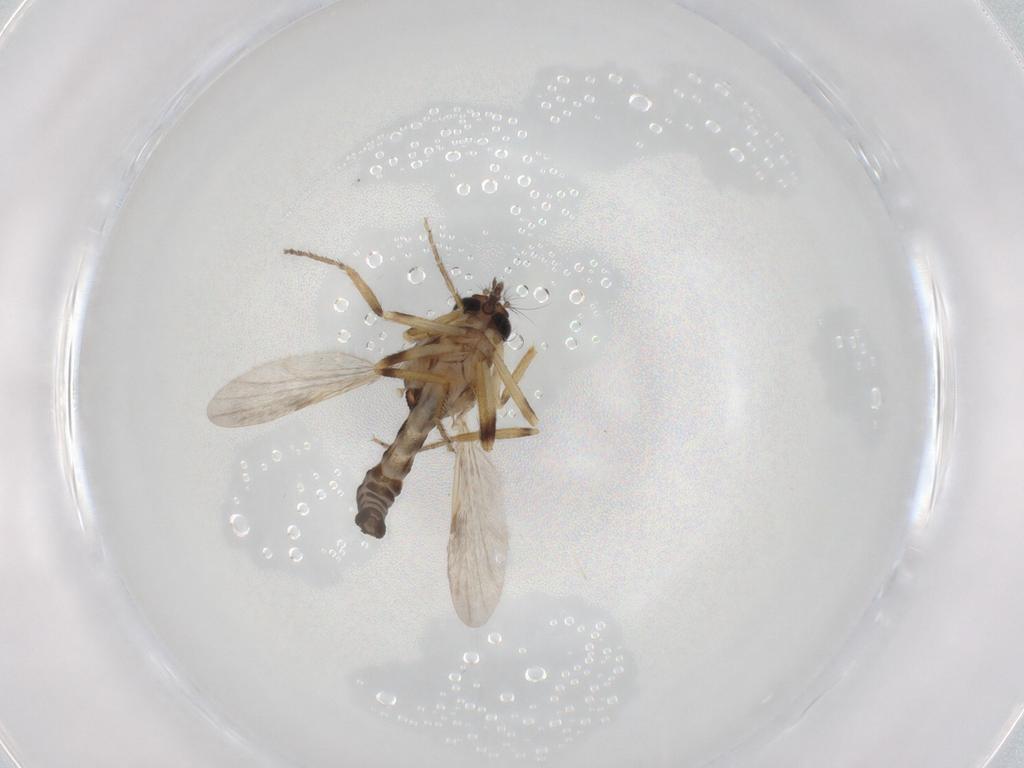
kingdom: Animalia
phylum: Arthropoda
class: Insecta
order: Diptera
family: Ceratopogonidae
